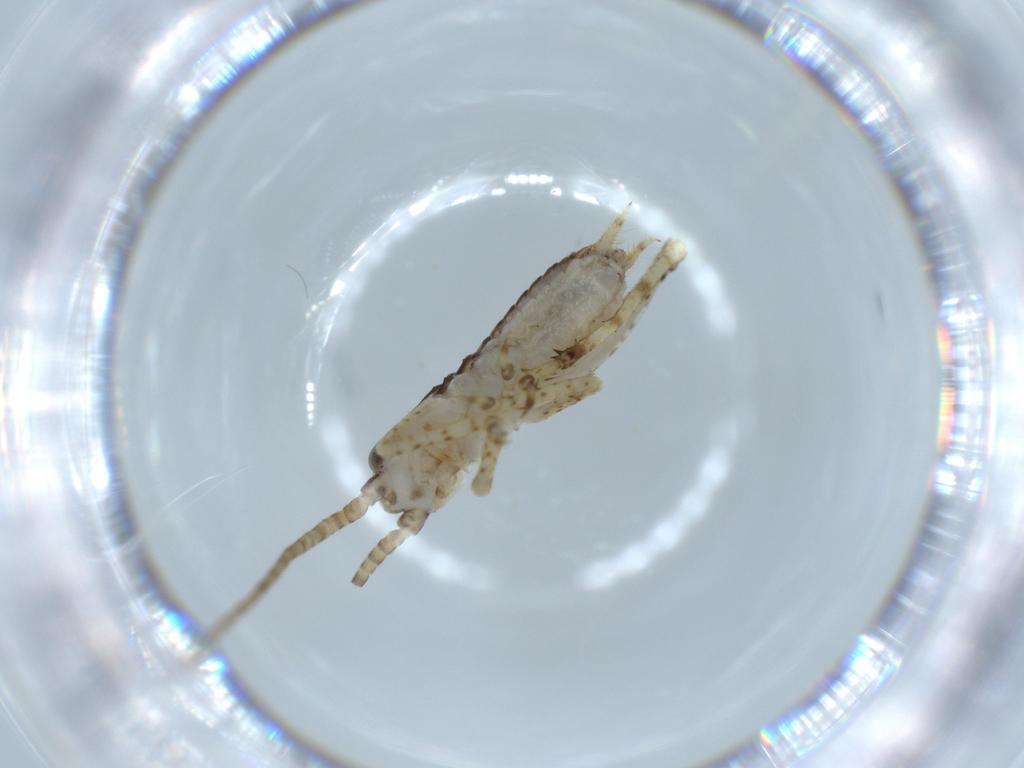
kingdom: Animalia
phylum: Arthropoda
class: Insecta
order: Orthoptera
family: Gryllidae
